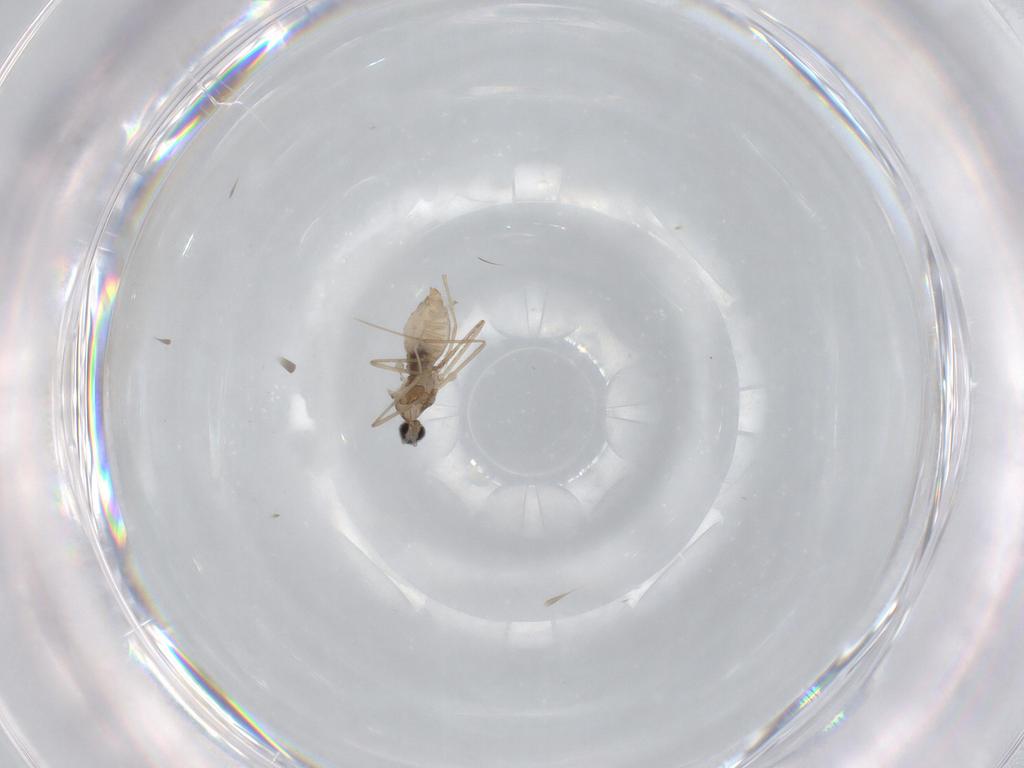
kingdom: Animalia
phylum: Arthropoda
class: Insecta
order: Diptera
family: Cecidomyiidae
